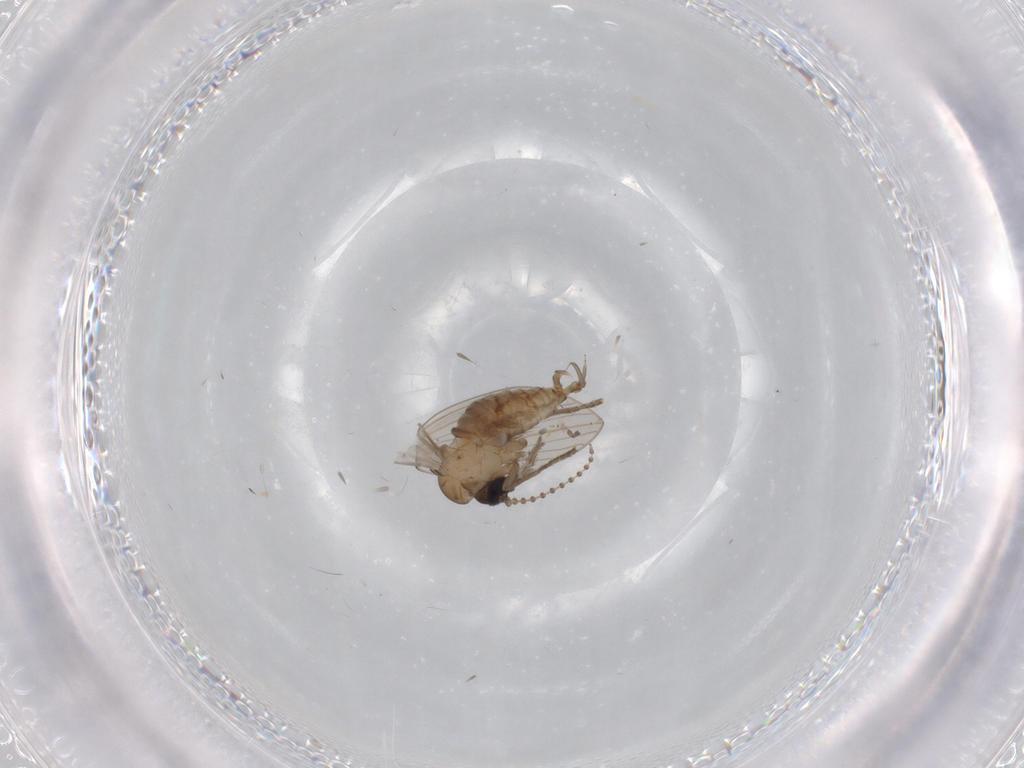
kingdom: Animalia
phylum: Arthropoda
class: Insecta
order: Diptera
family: Psychodidae
